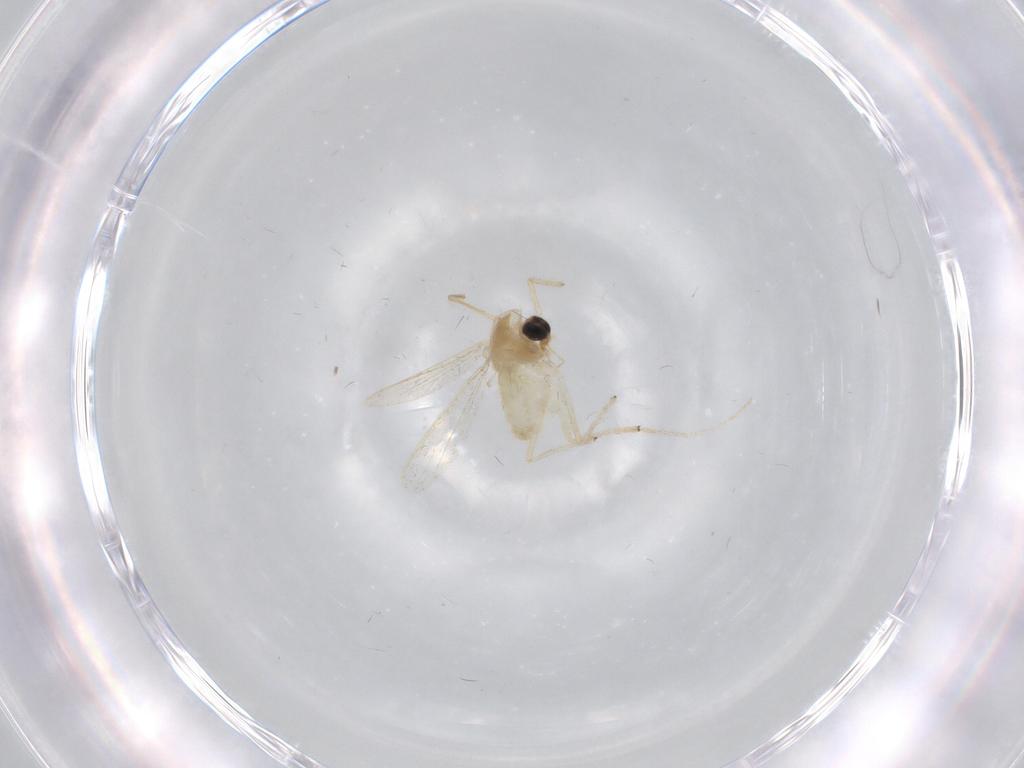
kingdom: Animalia
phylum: Arthropoda
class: Insecta
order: Diptera
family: Chironomidae
